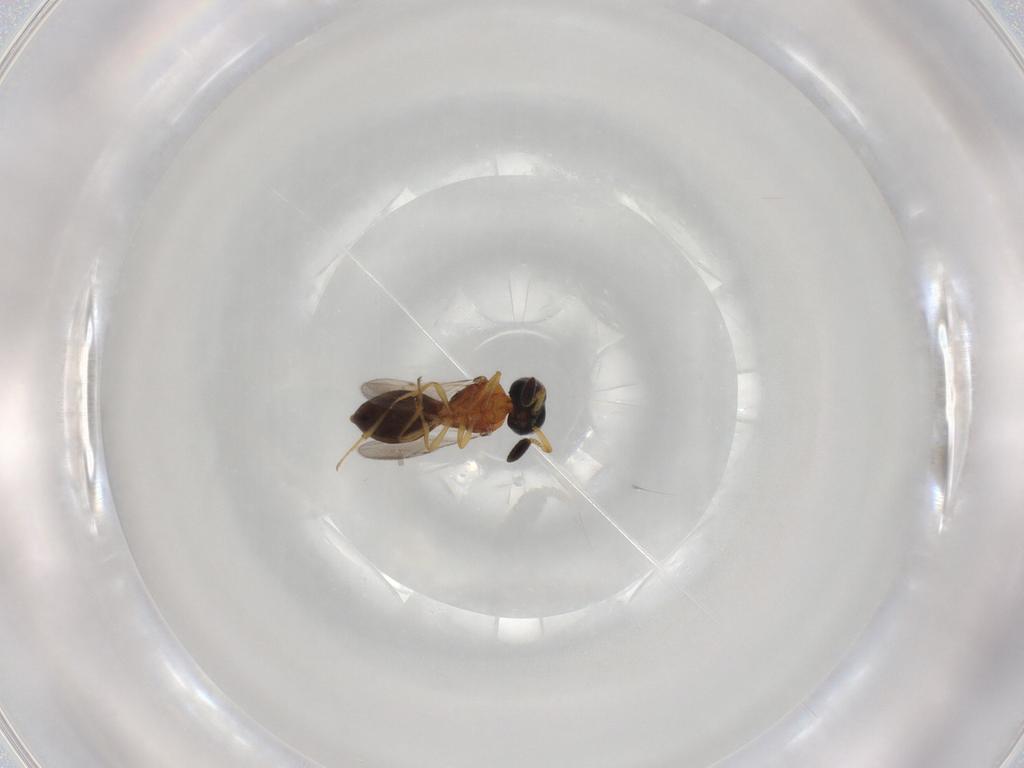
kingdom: Animalia
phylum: Arthropoda
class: Insecta
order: Hymenoptera
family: Scelionidae
